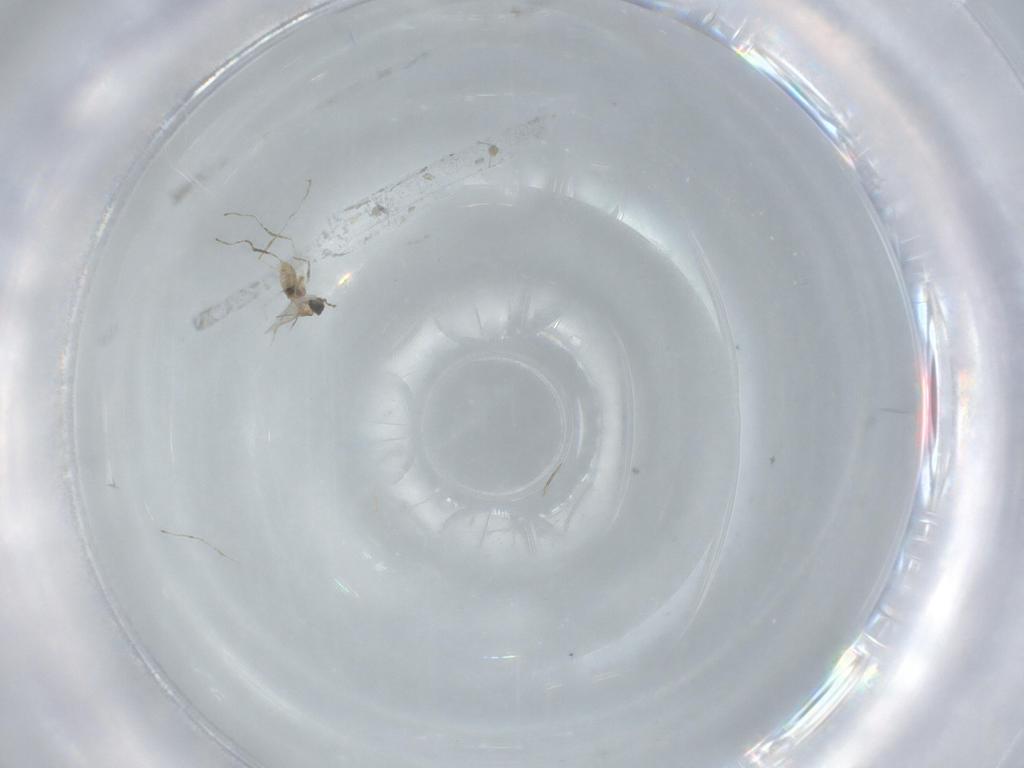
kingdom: Animalia
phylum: Arthropoda
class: Insecta
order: Diptera
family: Cecidomyiidae
